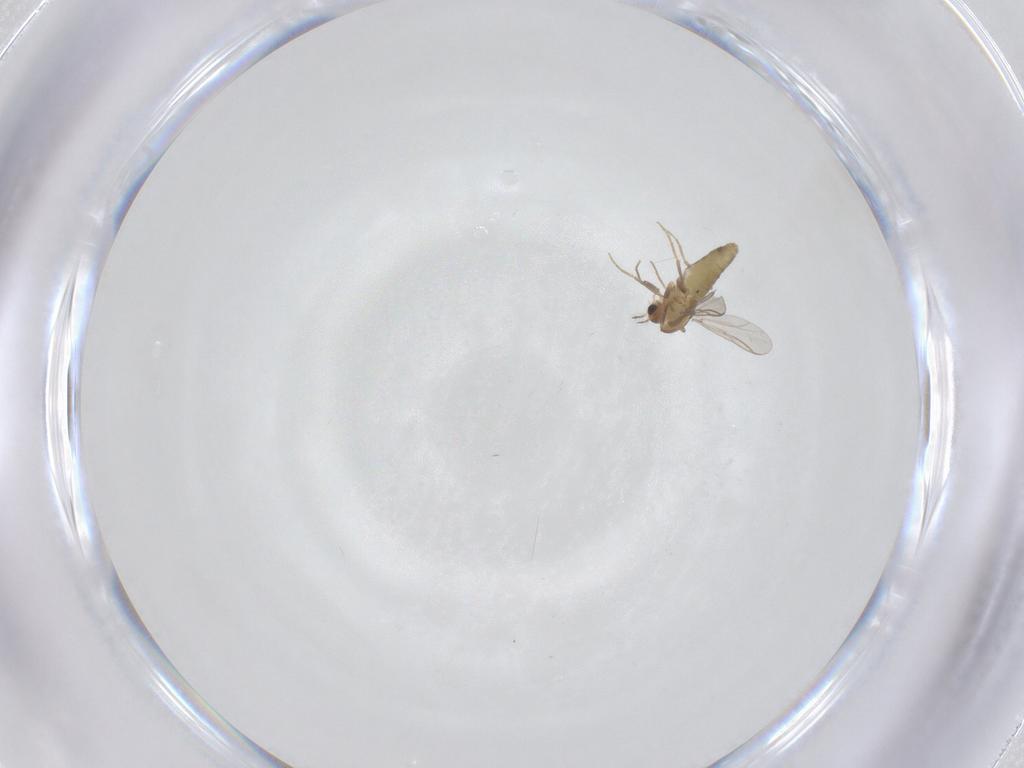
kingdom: Animalia
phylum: Arthropoda
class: Insecta
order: Diptera
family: Chironomidae
